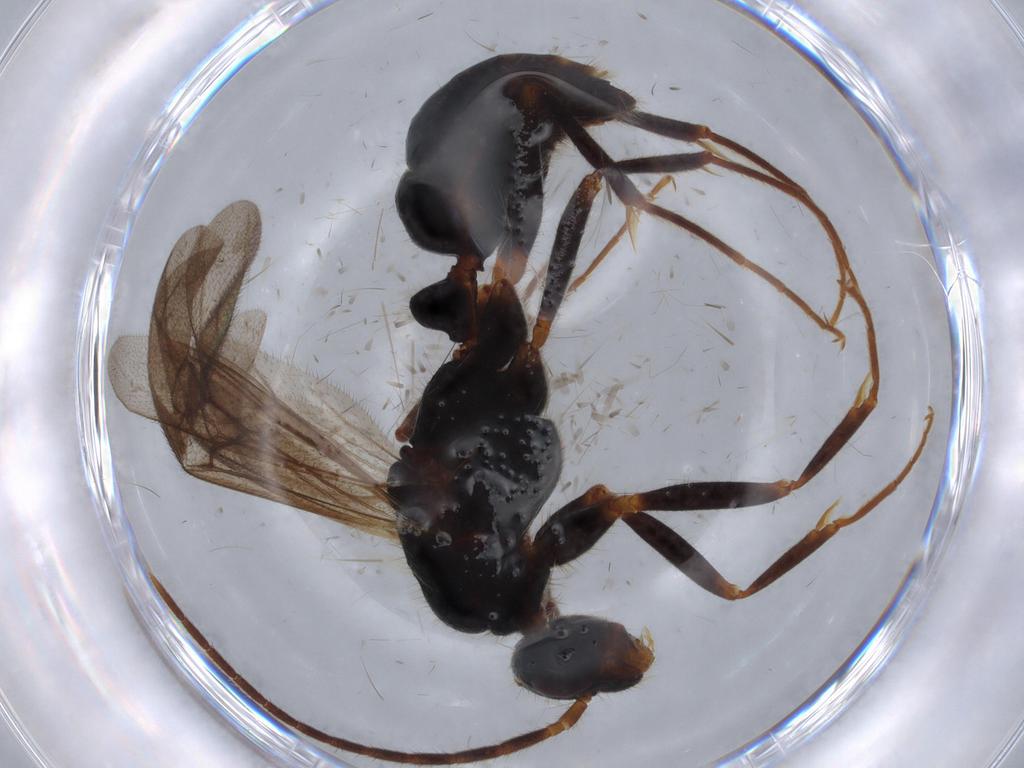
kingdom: Animalia
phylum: Arthropoda
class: Insecta
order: Hymenoptera
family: Formicidae
